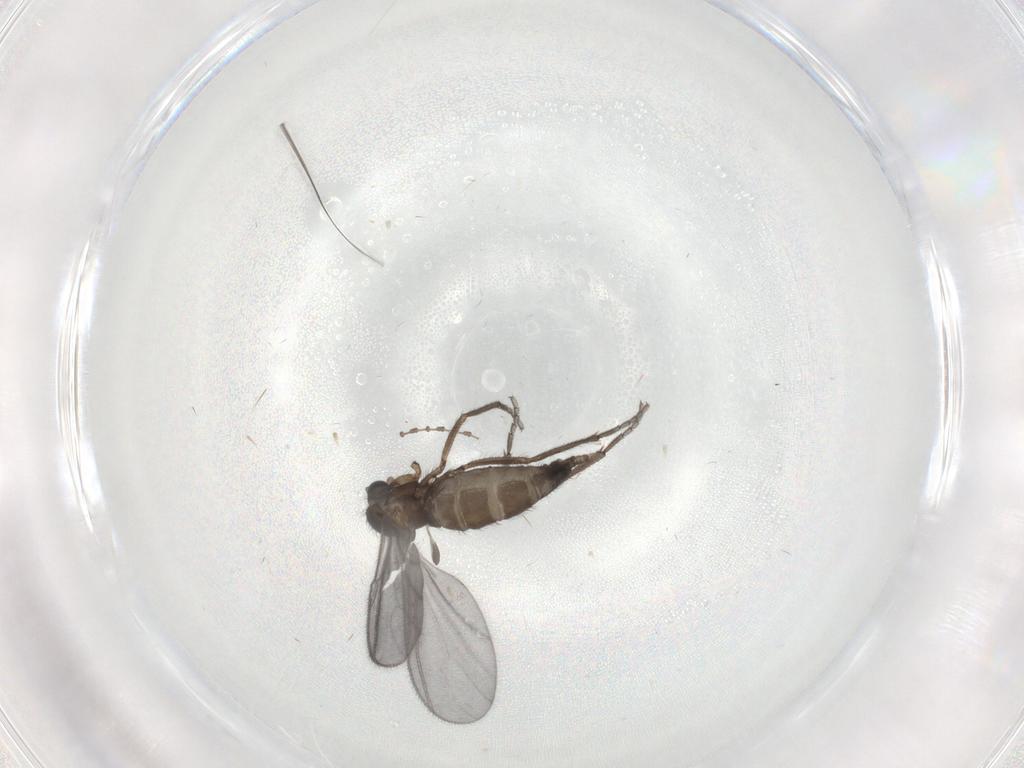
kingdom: Animalia
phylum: Arthropoda
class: Insecta
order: Diptera
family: Sciaridae
